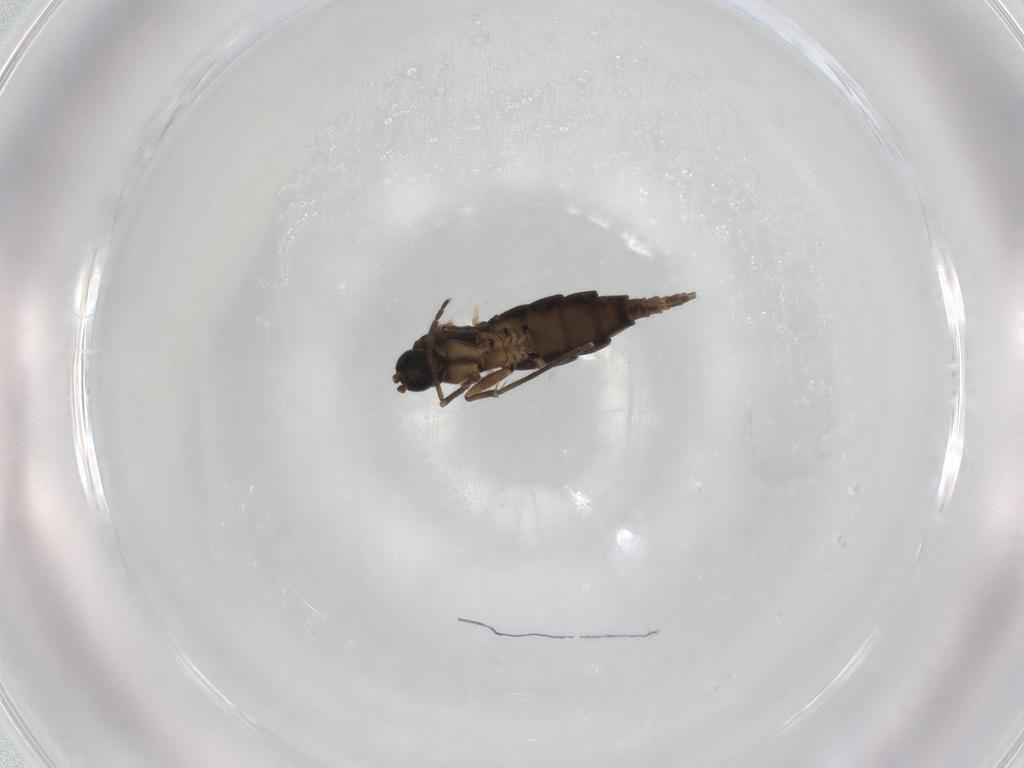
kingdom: Animalia
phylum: Arthropoda
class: Insecta
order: Diptera
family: Sciaridae
